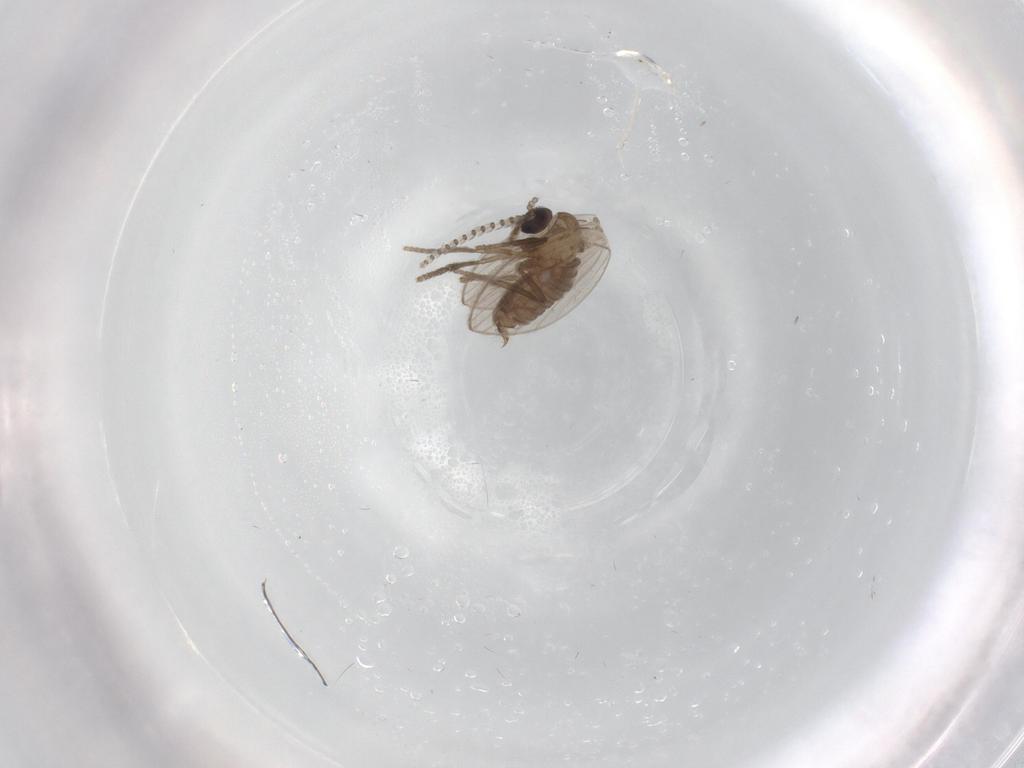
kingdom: Animalia
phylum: Arthropoda
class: Insecta
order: Diptera
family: Psychodidae
